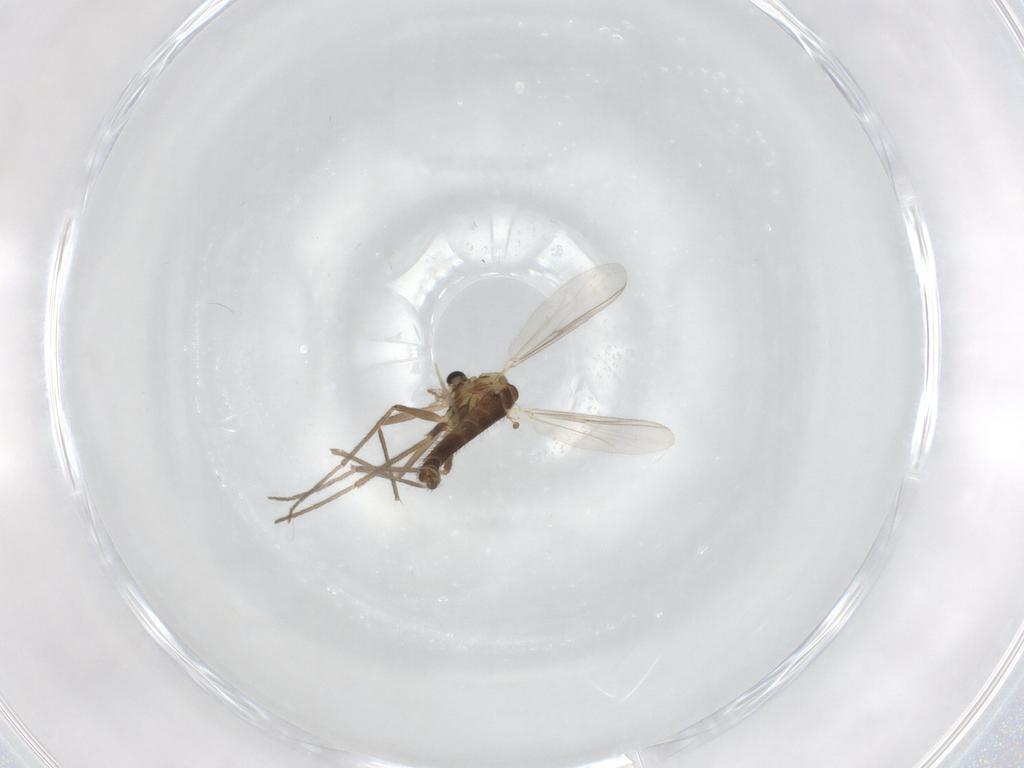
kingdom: Animalia
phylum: Arthropoda
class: Insecta
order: Diptera
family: Chironomidae
